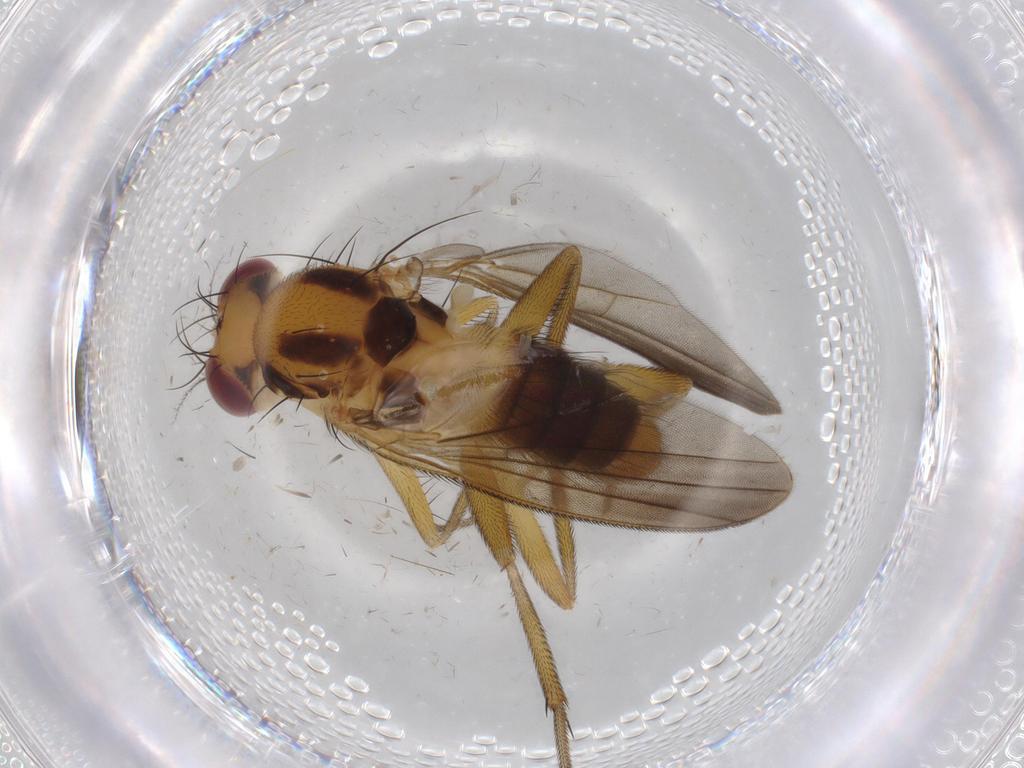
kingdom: Animalia
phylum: Arthropoda
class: Insecta
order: Diptera
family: Clusiidae
